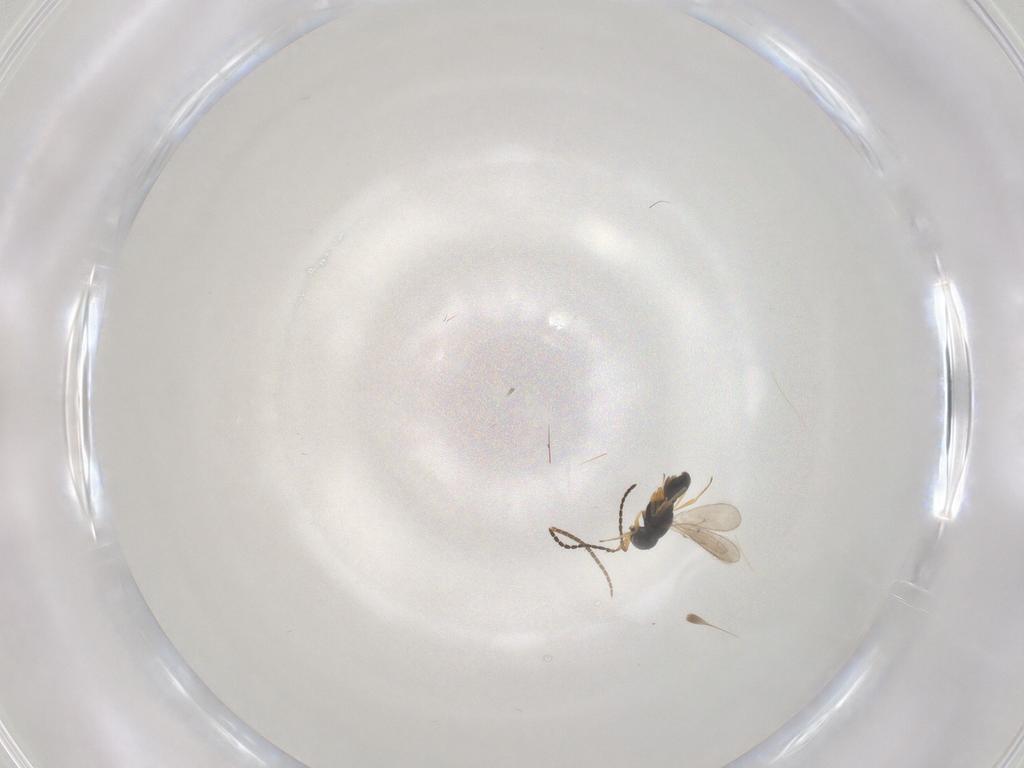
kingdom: Animalia
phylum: Arthropoda
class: Insecta
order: Hymenoptera
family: Scelionidae
